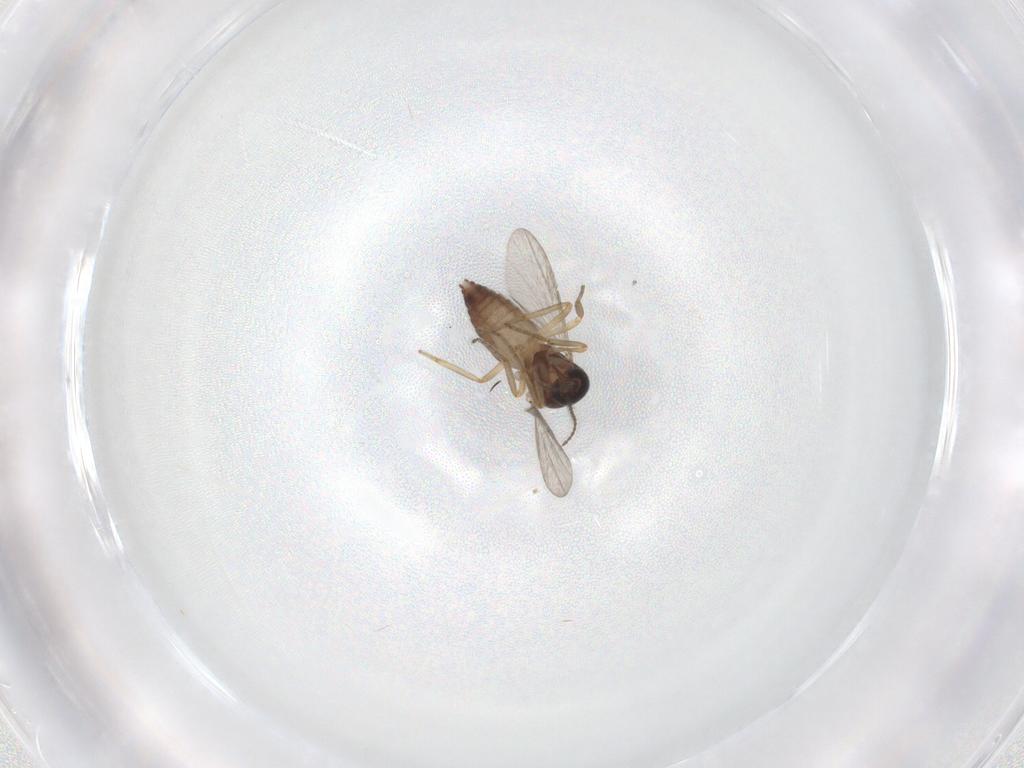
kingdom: Animalia
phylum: Arthropoda
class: Insecta
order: Diptera
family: Ceratopogonidae
